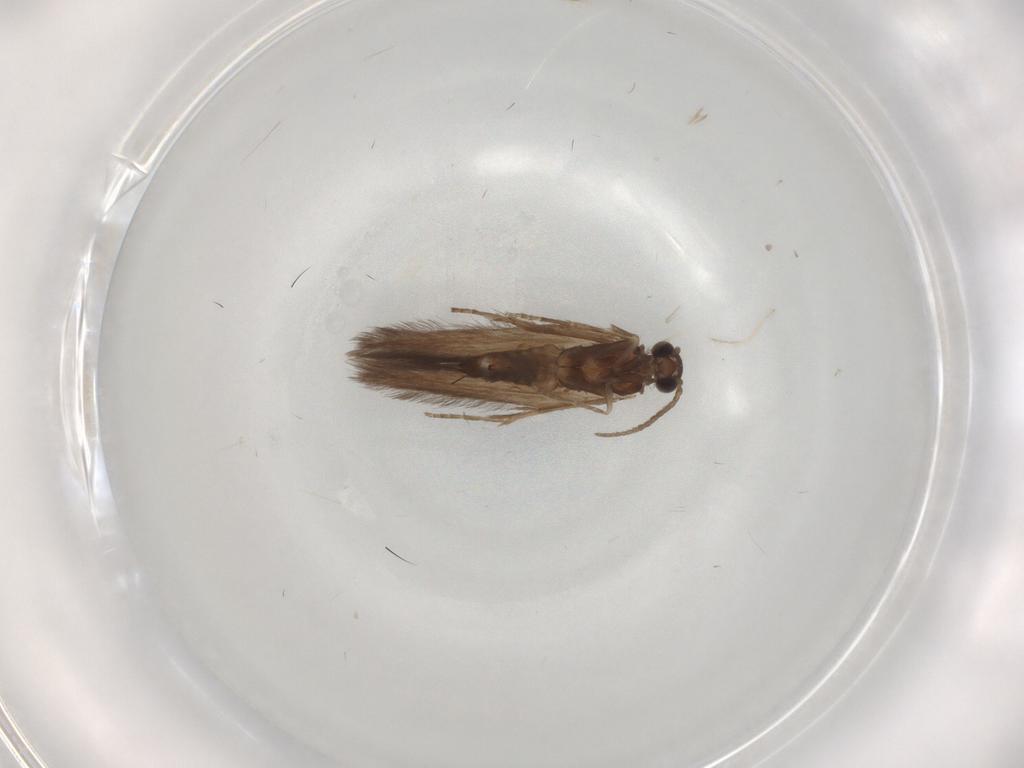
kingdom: Animalia
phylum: Arthropoda
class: Insecta
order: Trichoptera
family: Hydroptilidae
